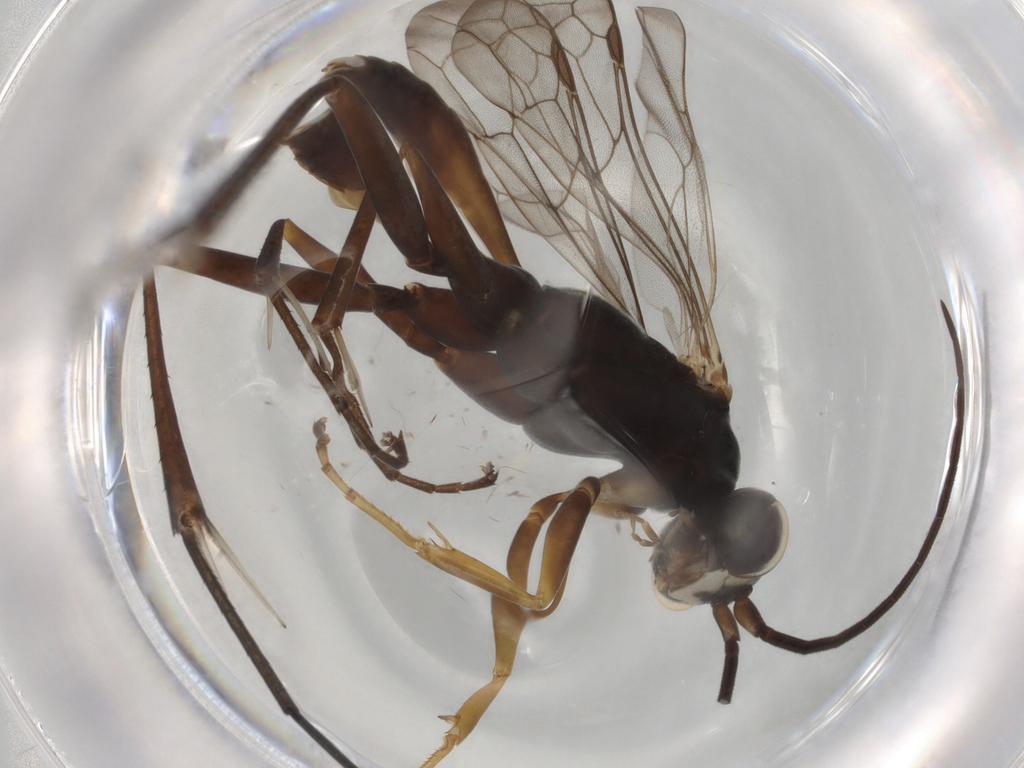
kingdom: Animalia
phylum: Arthropoda
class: Insecta
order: Hymenoptera
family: Pompilidae
